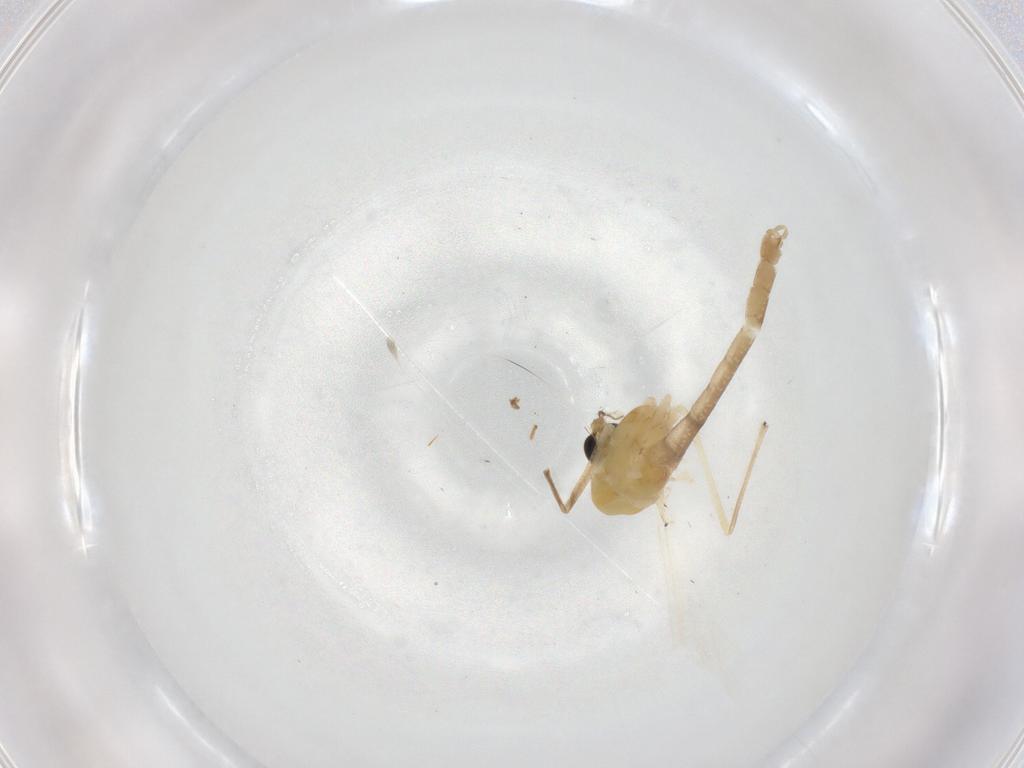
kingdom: Animalia
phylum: Arthropoda
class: Insecta
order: Diptera
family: Chironomidae
